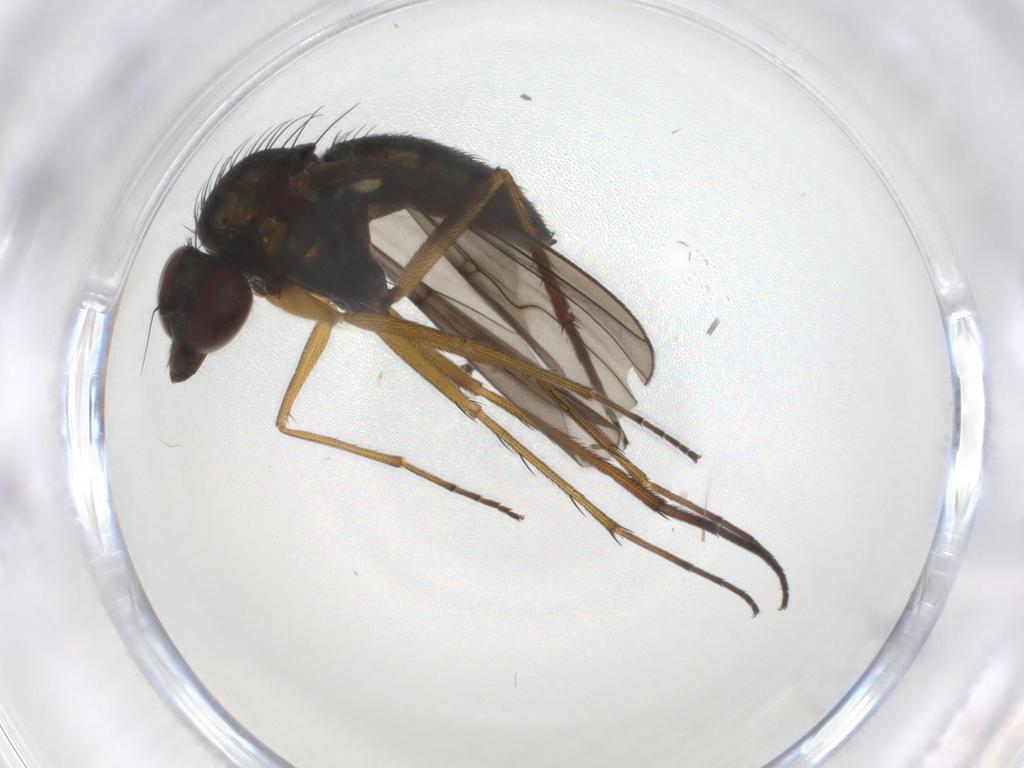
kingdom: Animalia
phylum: Arthropoda
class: Insecta
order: Diptera
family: Dolichopodidae
